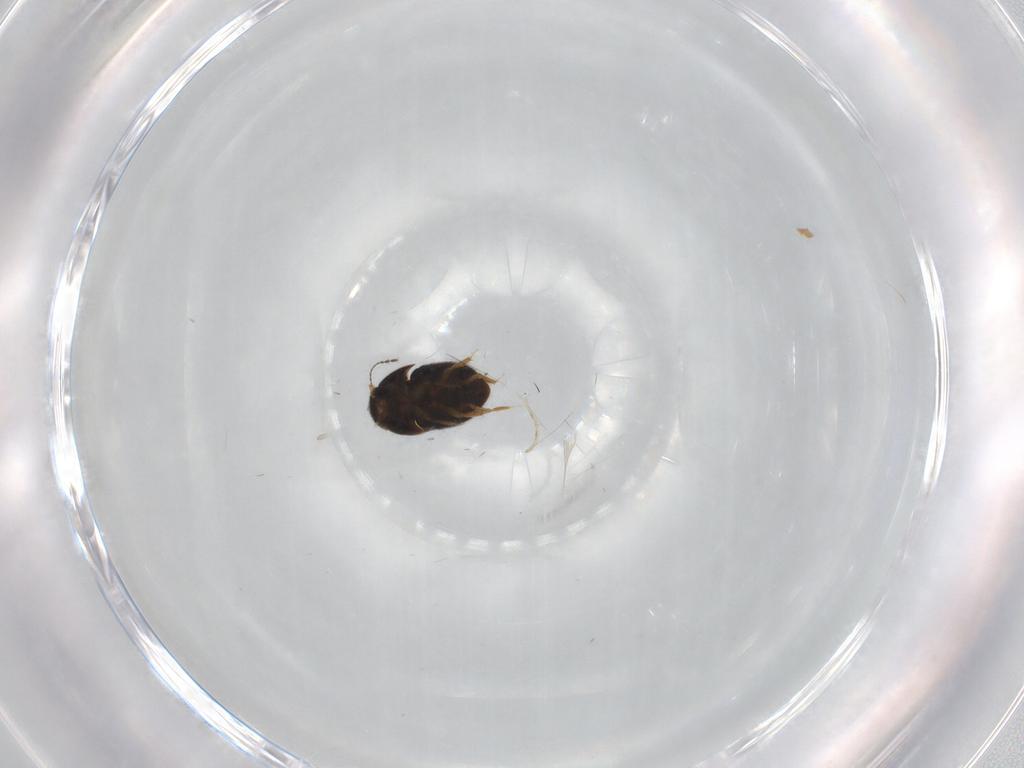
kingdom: Animalia
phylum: Arthropoda
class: Insecta
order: Coleoptera
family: Ptiliidae
